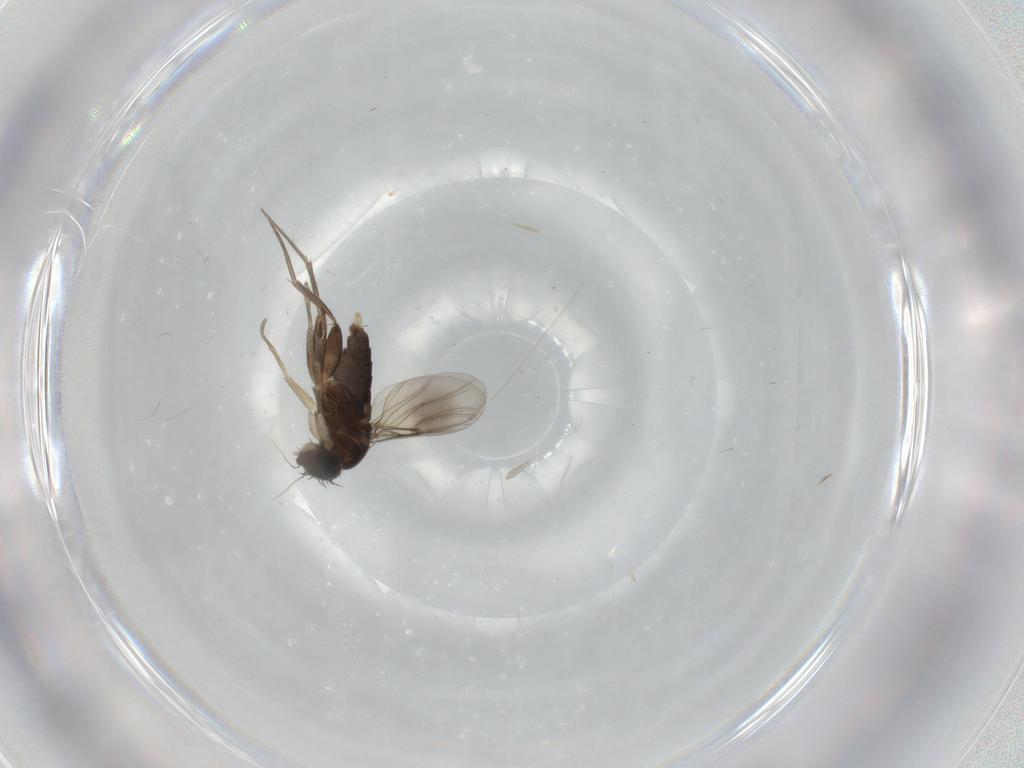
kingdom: Animalia
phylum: Arthropoda
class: Insecta
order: Diptera
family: Phoridae
